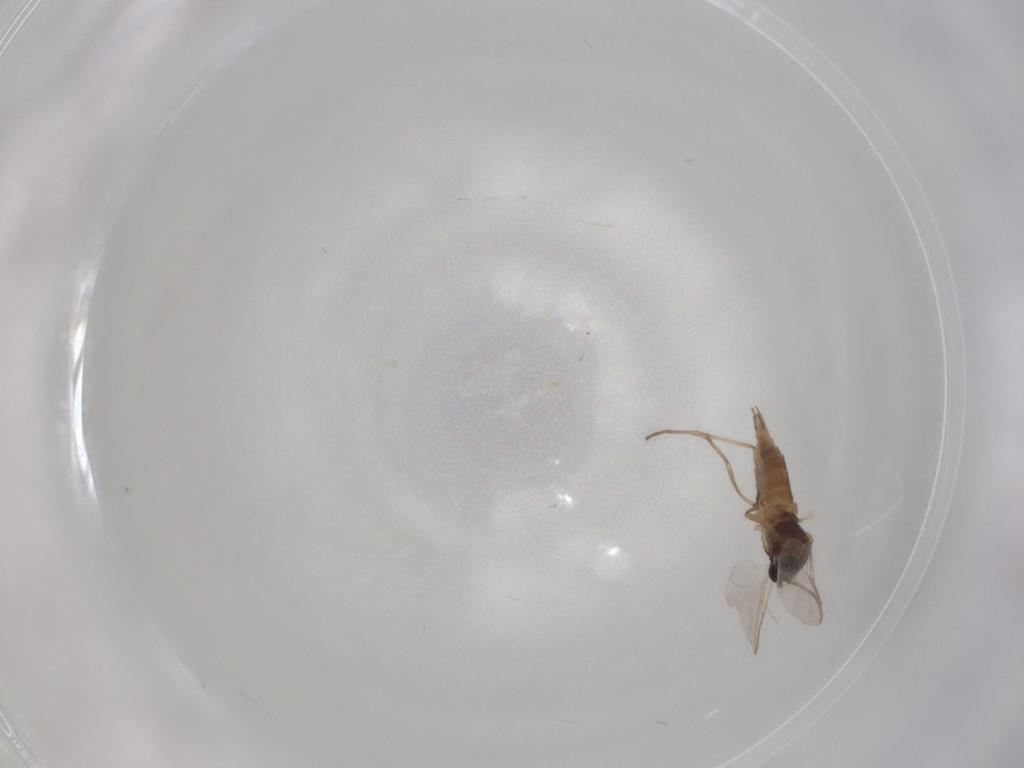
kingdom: Animalia
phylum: Arthropoda
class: Insecta
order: Diptera
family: Sciaridae
